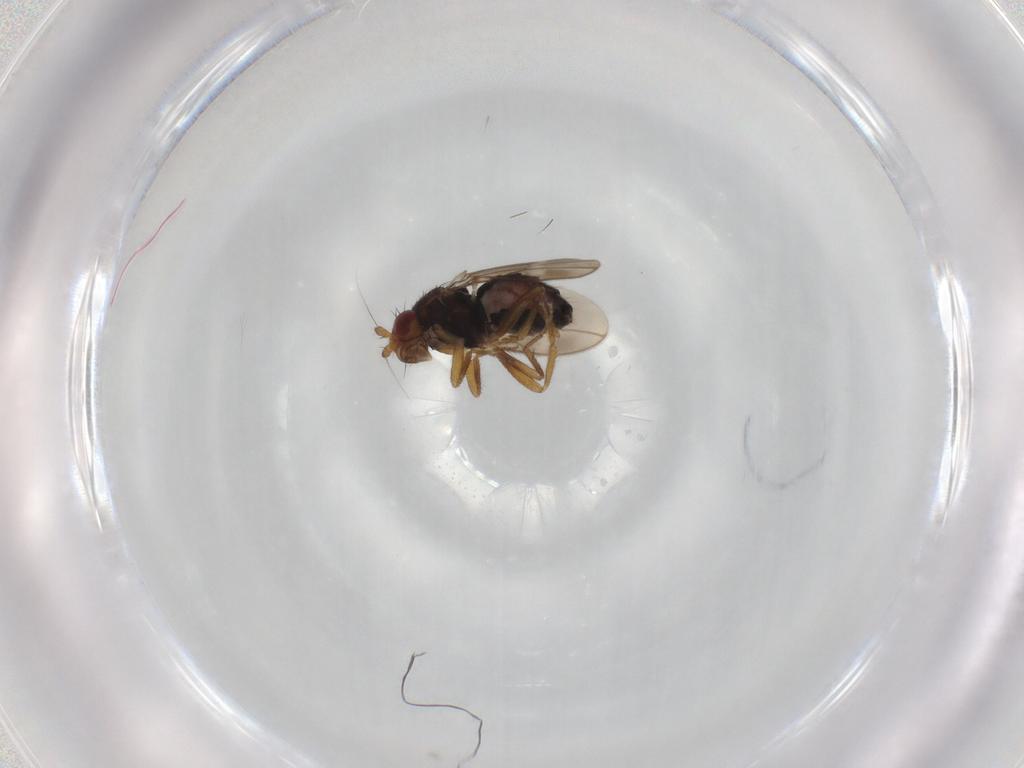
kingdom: Animalia
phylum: Arthropoda
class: Insecta
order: Diptera
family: Sphaeroceridae
